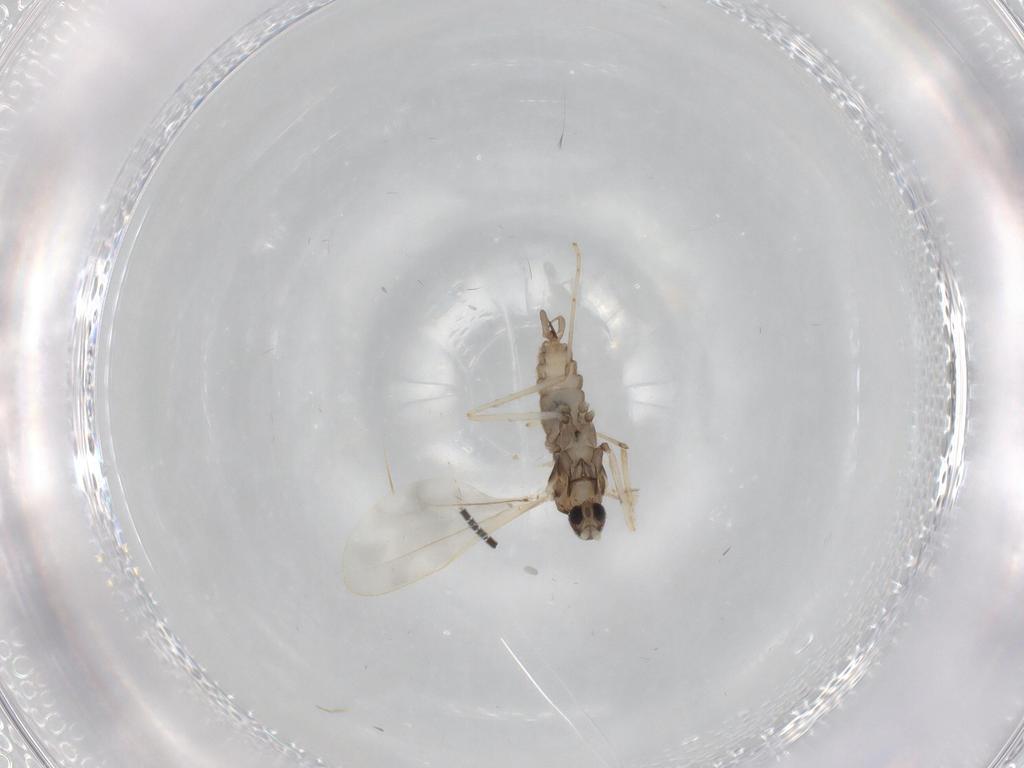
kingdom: Animalia
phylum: Arthropoda
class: Insecta
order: Diptera
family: Cecidomyiidae
